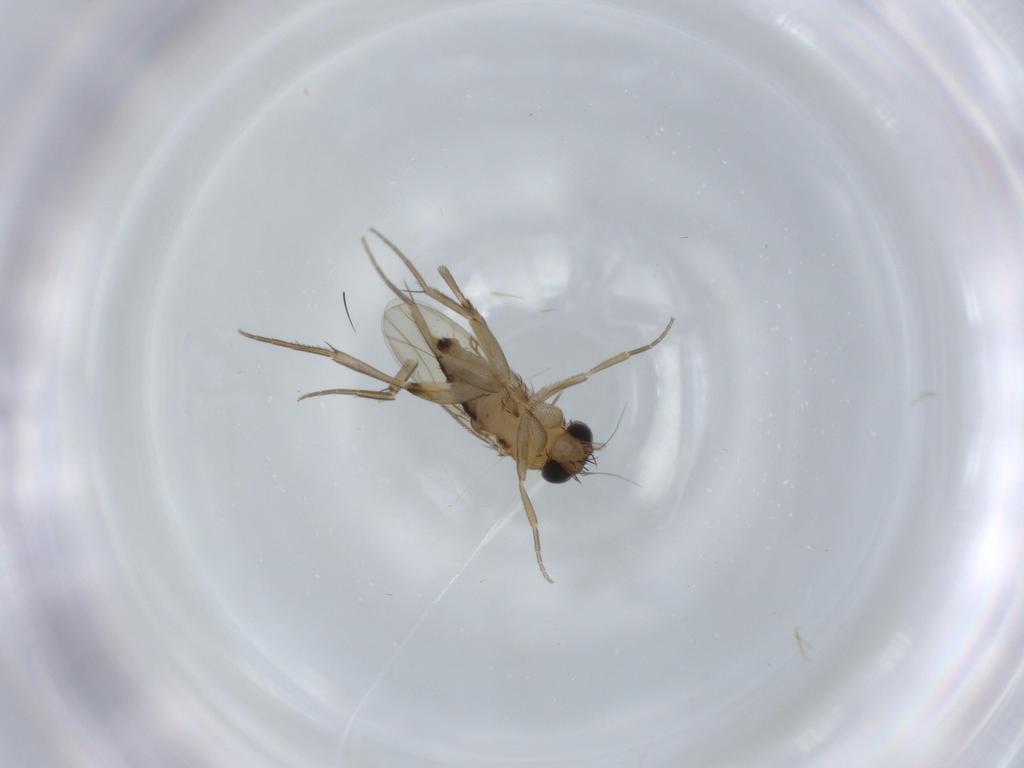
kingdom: Animalia
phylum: Arthropoda
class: Insecta
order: Diptera
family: Phoridae
